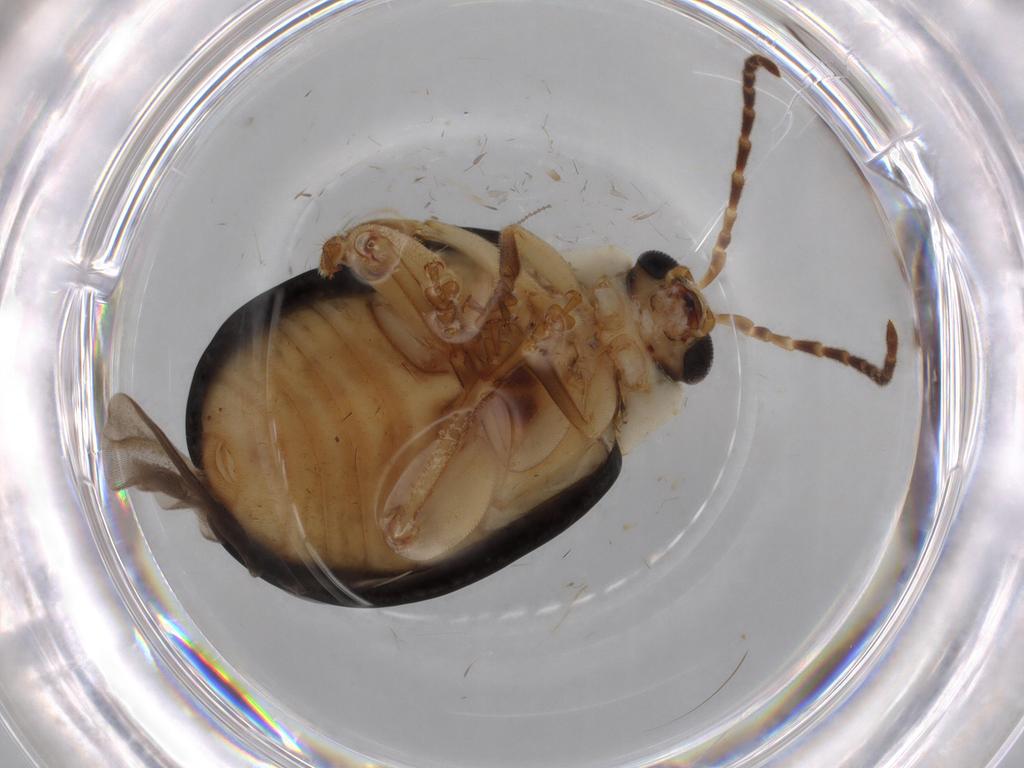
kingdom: Animalia
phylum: Arthropoda
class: Insecta
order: Coleoptera
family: Chrysomelidae
